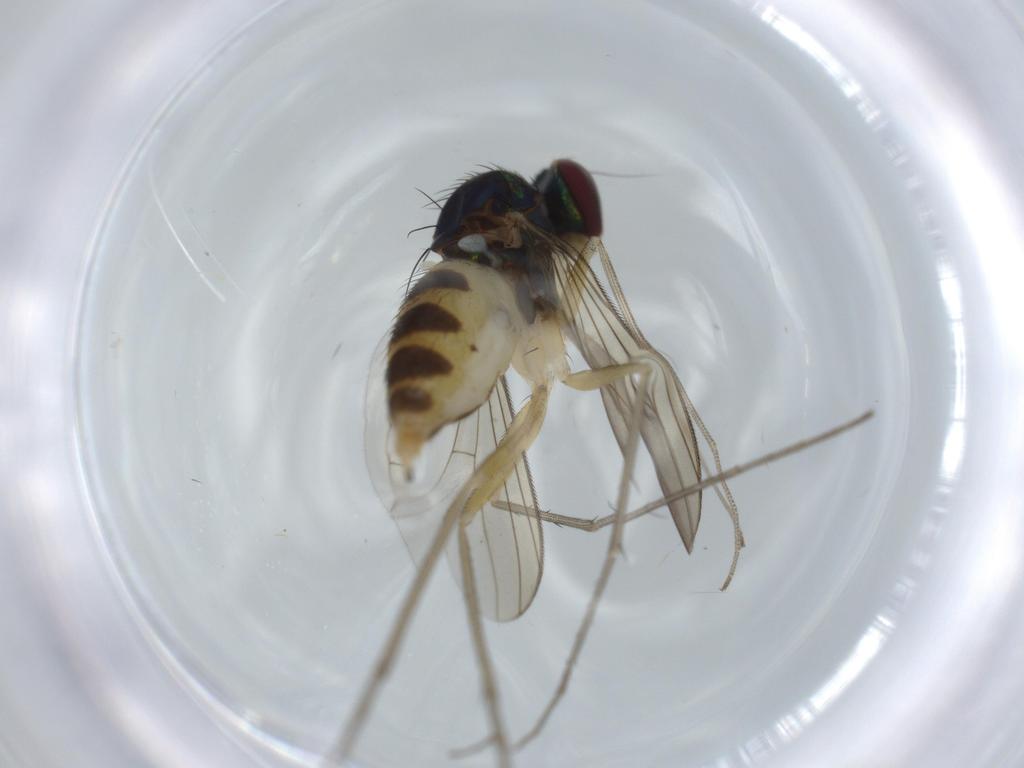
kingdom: Animalia
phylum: Arthropoda
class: Insecta
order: Diptera
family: Dolichopodidae
